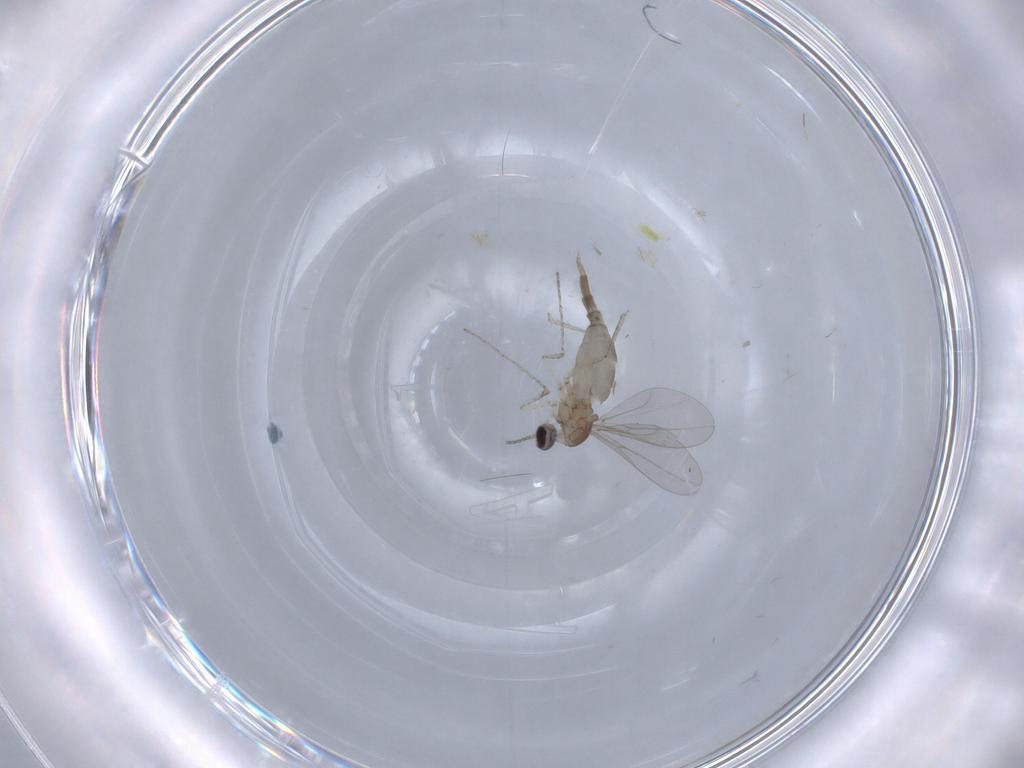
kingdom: Animalia
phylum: Arthropoda
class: Insecta
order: Diptera
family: Cecidomyiidae
